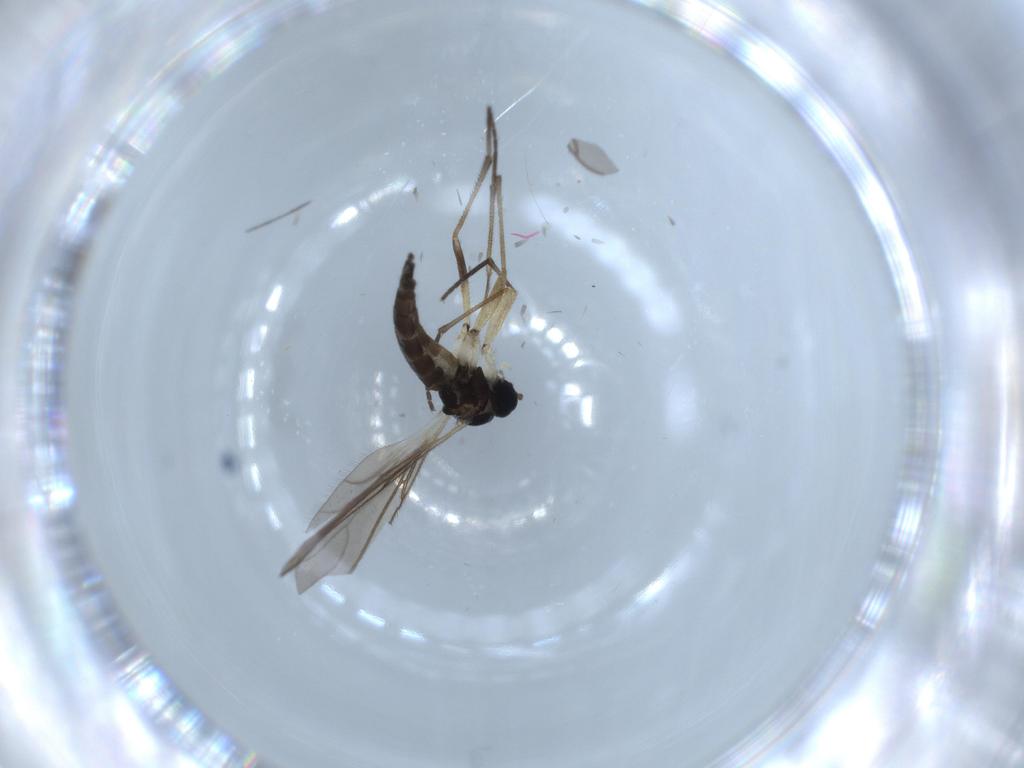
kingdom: Animalia
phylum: Arthropoda
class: Insecta
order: Diptera
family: Sciaridae
